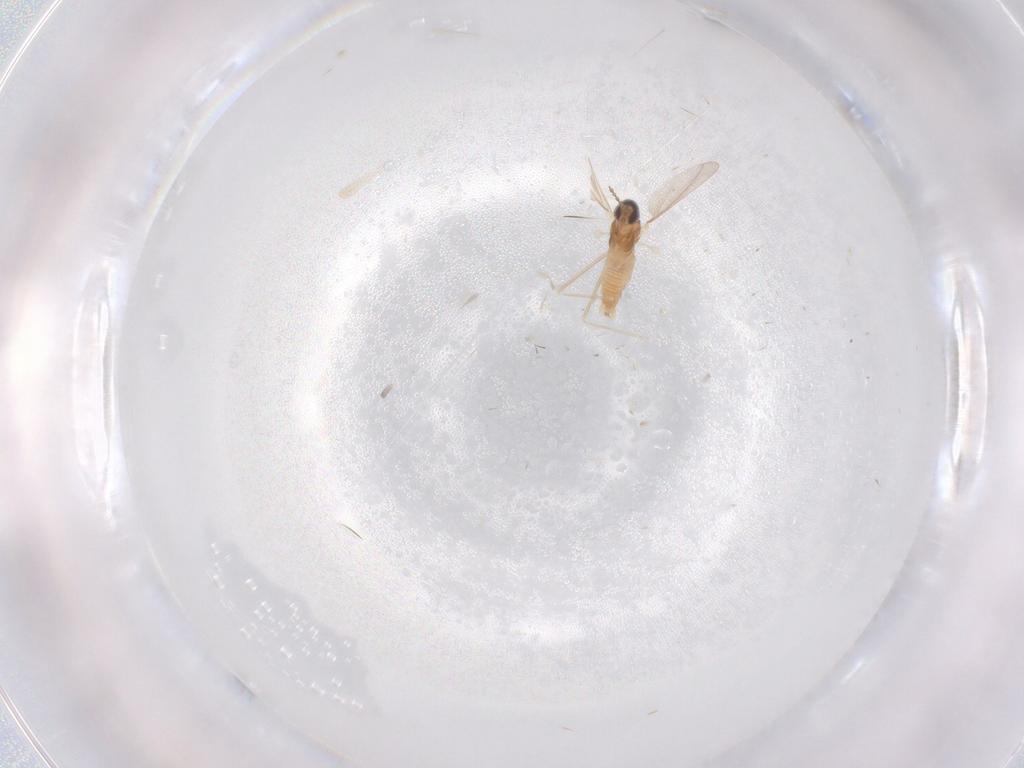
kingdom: Animalia
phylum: Arthropoda
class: Insecta
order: Diptera
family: Cecidomyiidae
